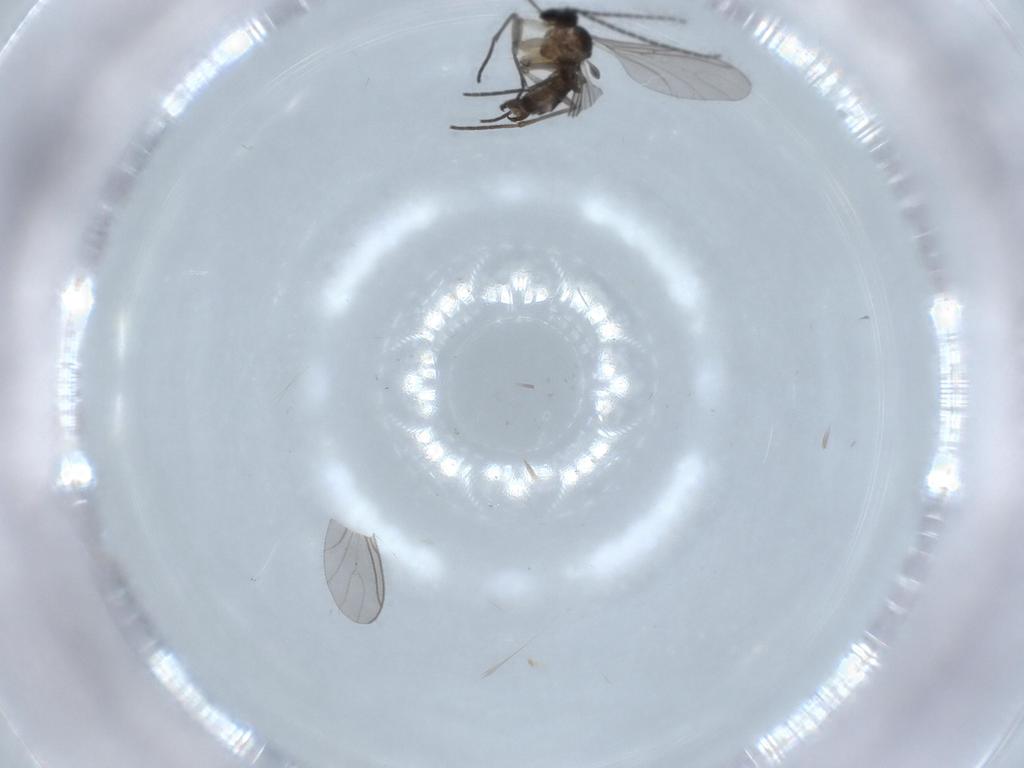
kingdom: Animalia
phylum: Arthropoda
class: Insecta
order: Diptera
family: Sciaridae
